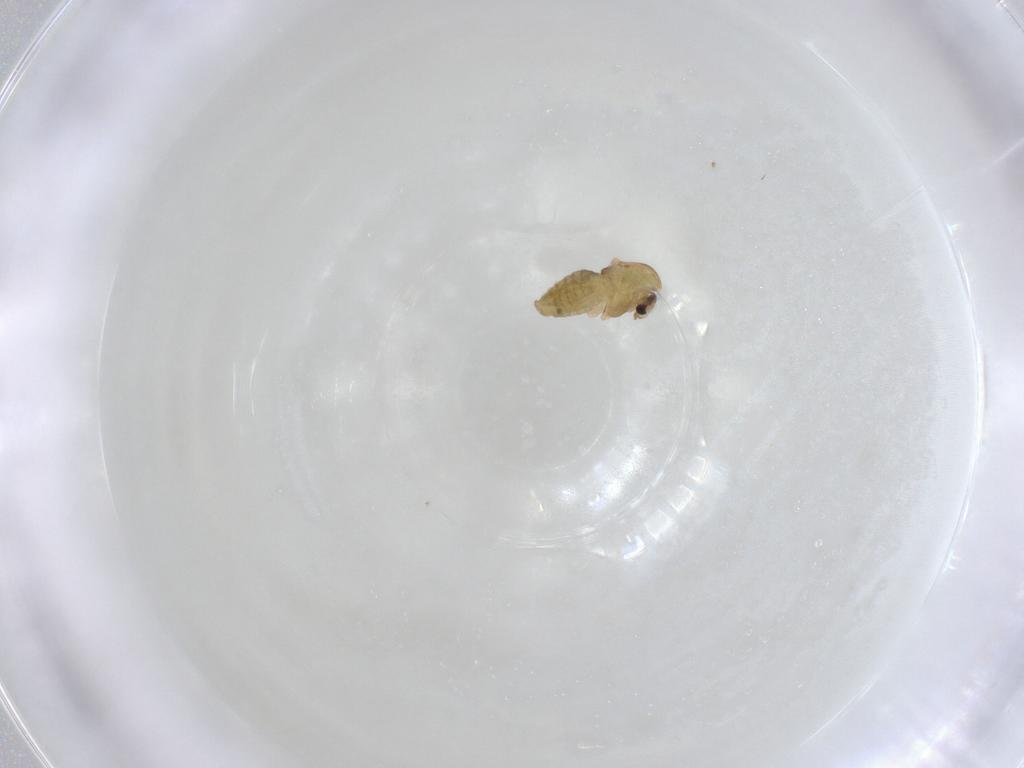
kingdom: Animalia
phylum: Arthropoda
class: Insecta
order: Diptera
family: Chironomidae
